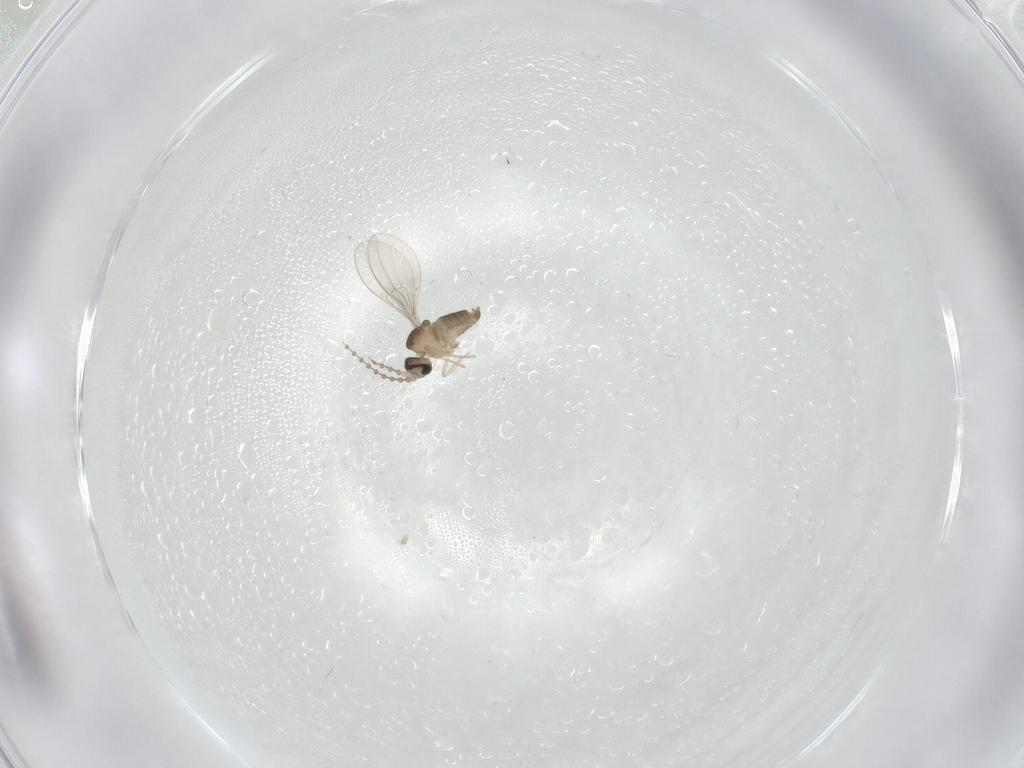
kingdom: Animalia
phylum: Arthropoda
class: Insecta
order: Diptera
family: Cecidomyiidae
